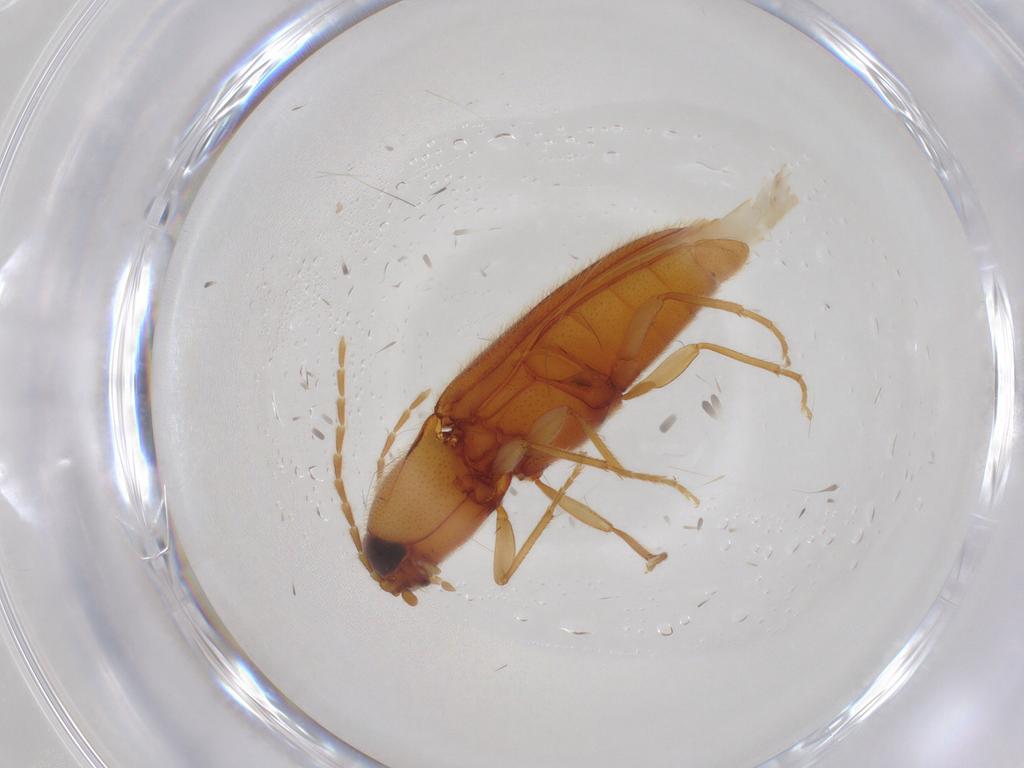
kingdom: Animalia
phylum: Arthropoda
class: Insecta
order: Coleoptera
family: Elateridae
